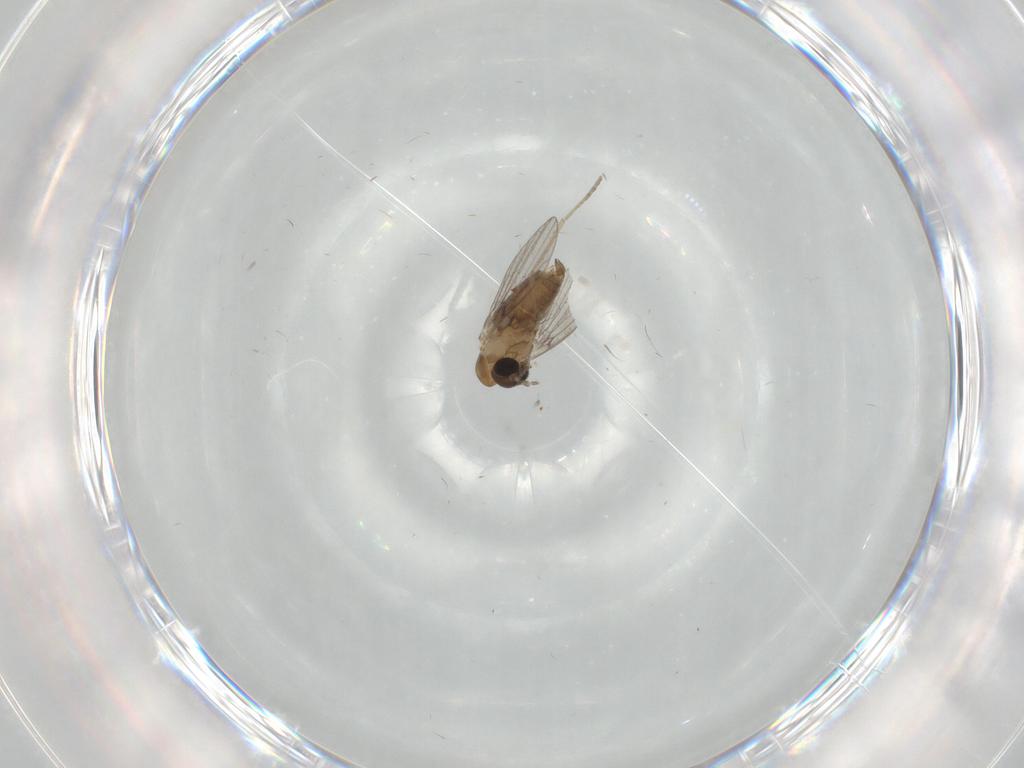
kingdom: Animalia
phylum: Arthropoda
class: Insecta
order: Diptera
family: Psychodidae
